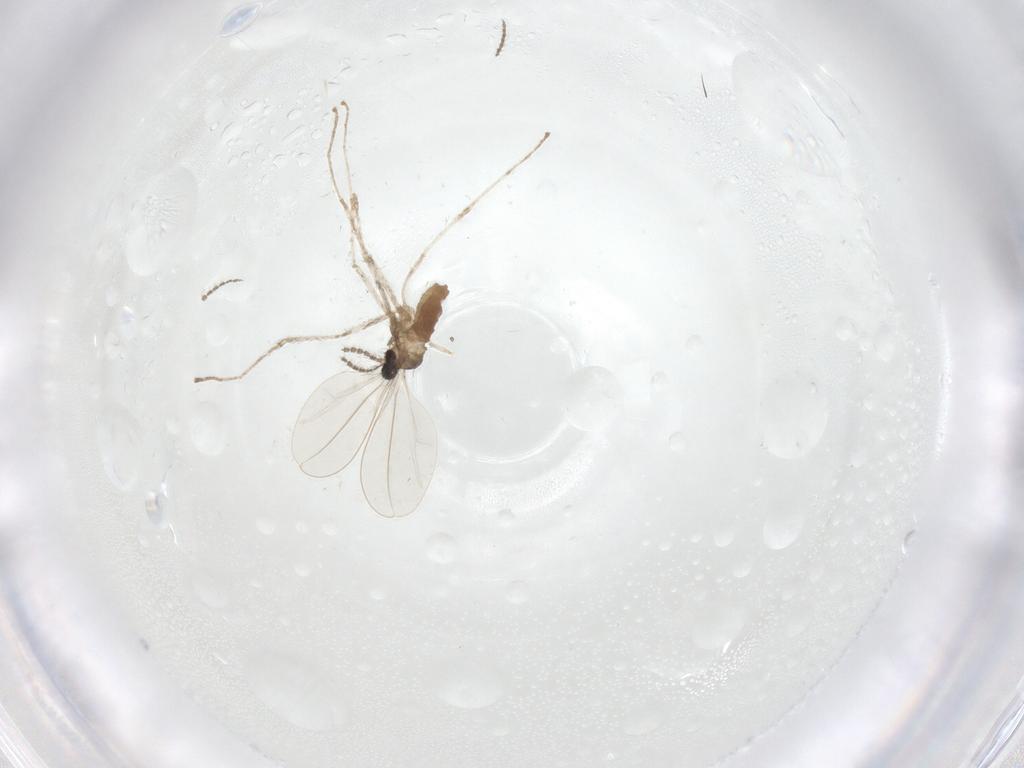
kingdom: Animalia
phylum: Arthropoda
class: Insecta
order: Diptera
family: Cecidomyiidae
